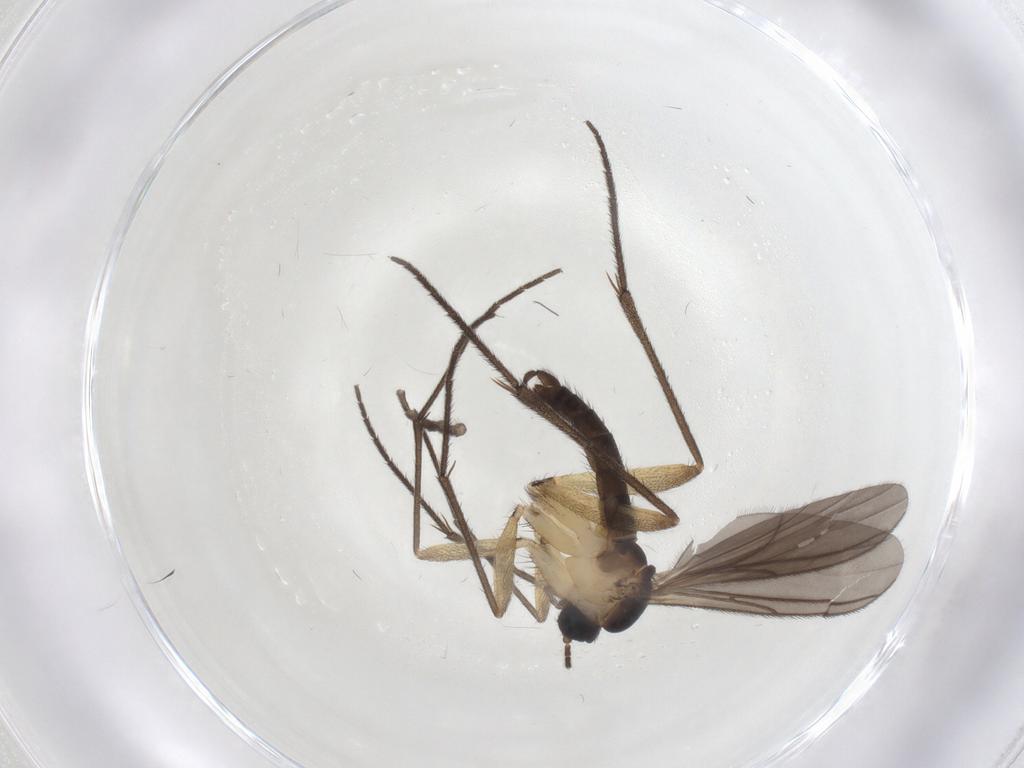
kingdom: Animalia
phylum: Arthropoda
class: Insecta
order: Diptera
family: Sciaridae
